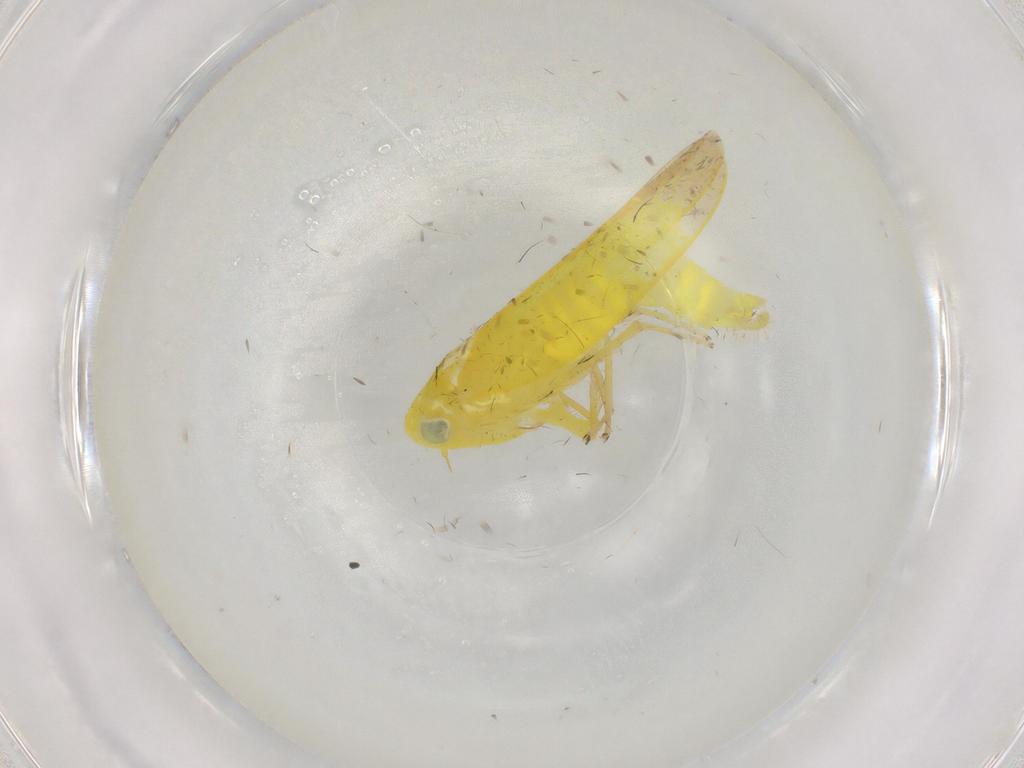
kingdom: Animalia
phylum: Arthropoda
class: Insecta
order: Hemiptera
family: Cicadellidae
